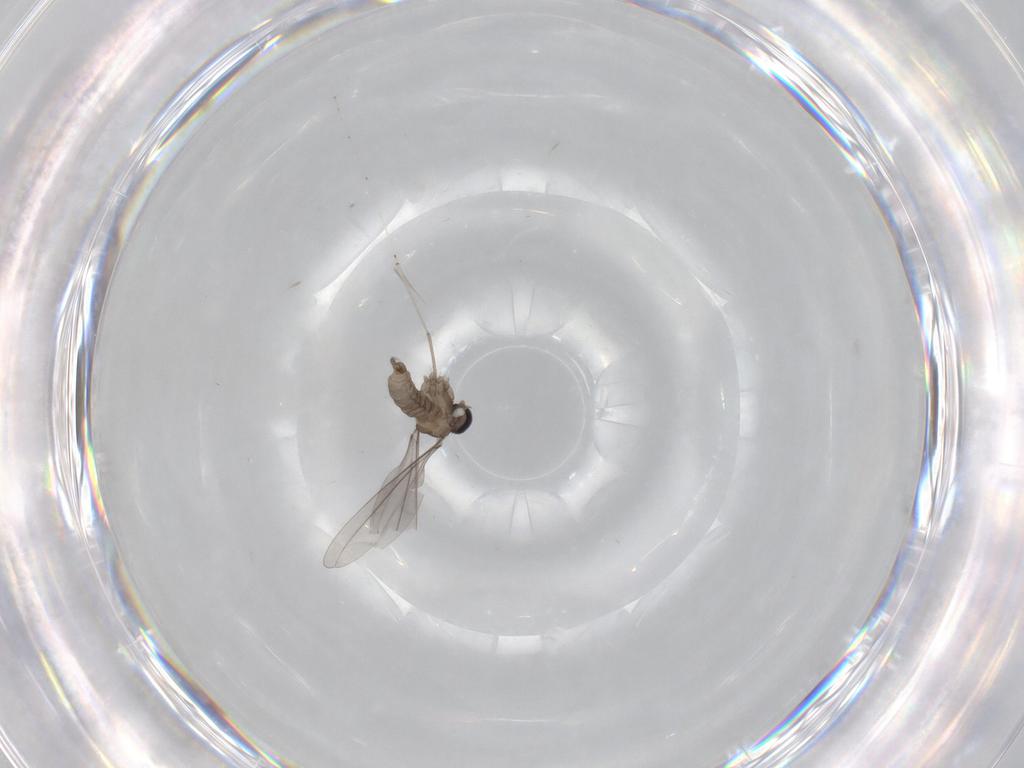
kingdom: Animalia
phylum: Arthropoda
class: Insecta
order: Diptera
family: Cecidomyiidae
